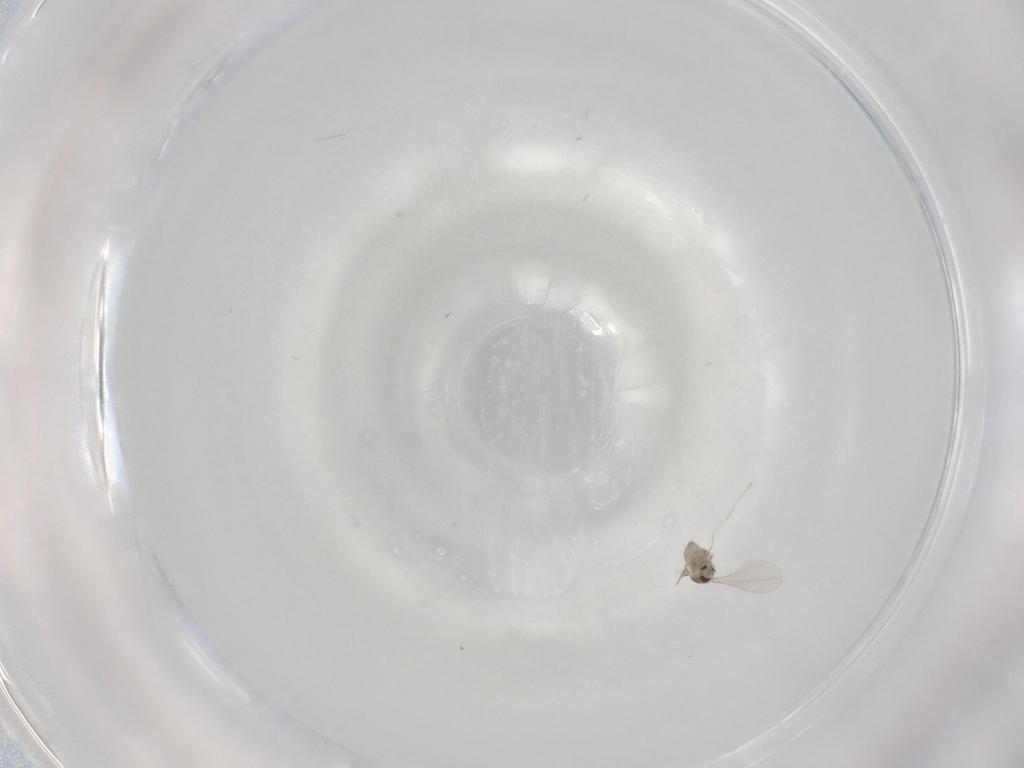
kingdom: Animalia
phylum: Arthropoda
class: Insecta
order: Diptera
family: Cecidomyiidae
